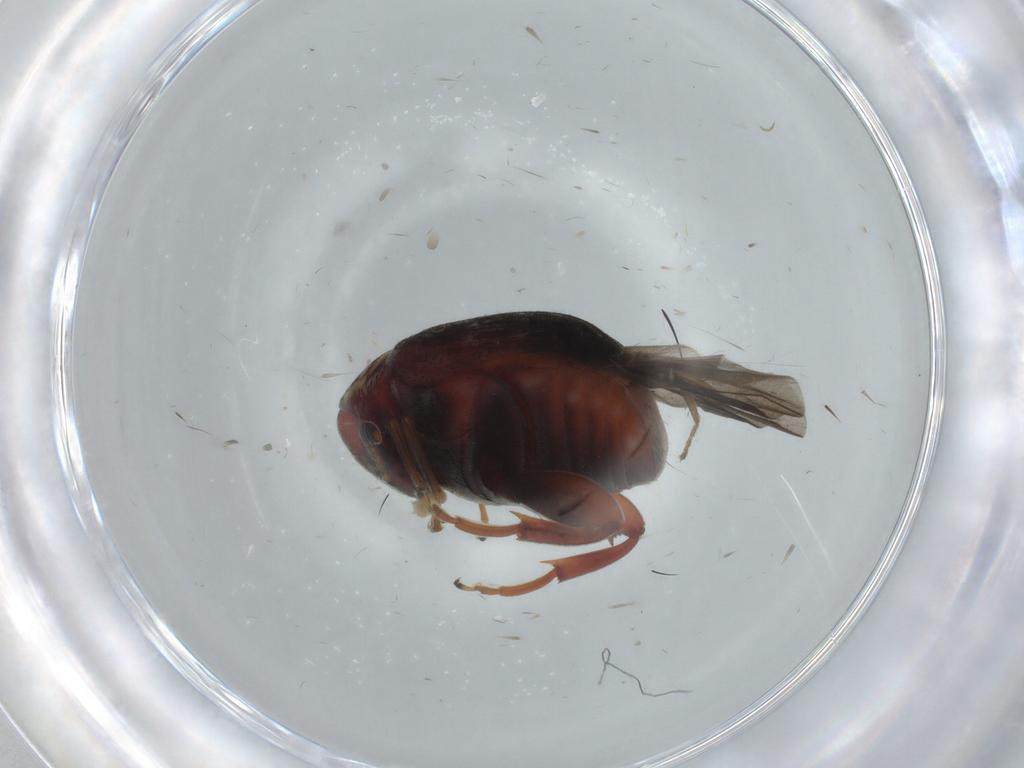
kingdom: Animalia
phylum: Arthropoda
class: Insecta
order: Coleoptera
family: Chrysomelidae
